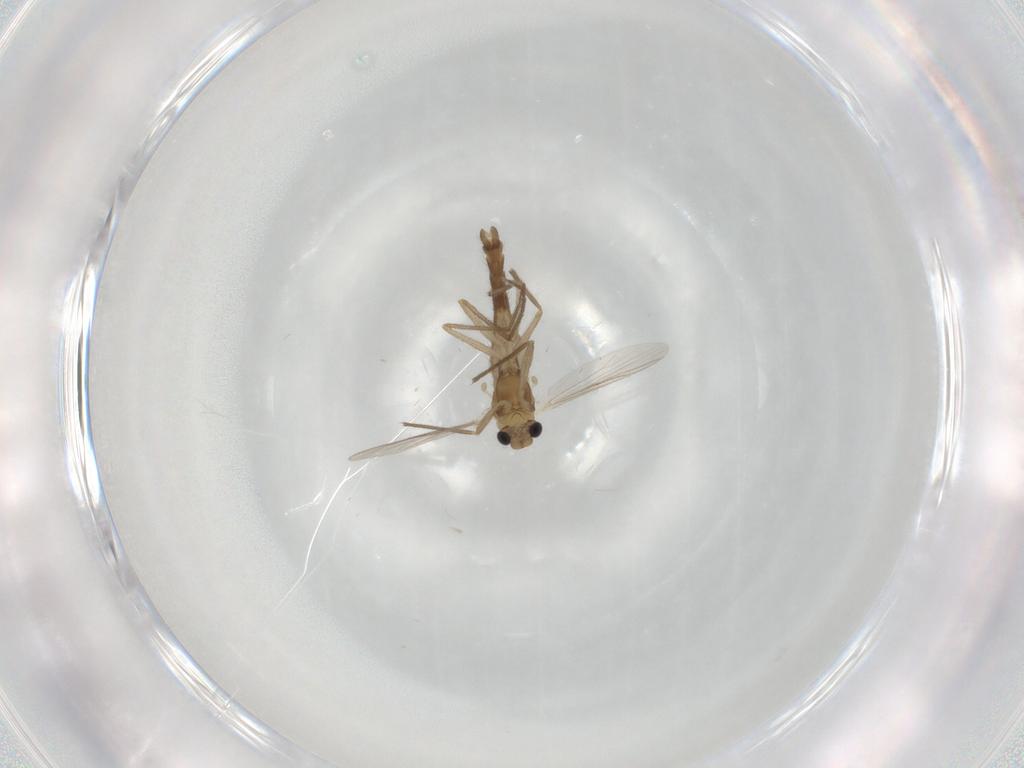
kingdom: Animalia
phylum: Arthropoda
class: Insecta
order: Diptera
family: Chironomidae
